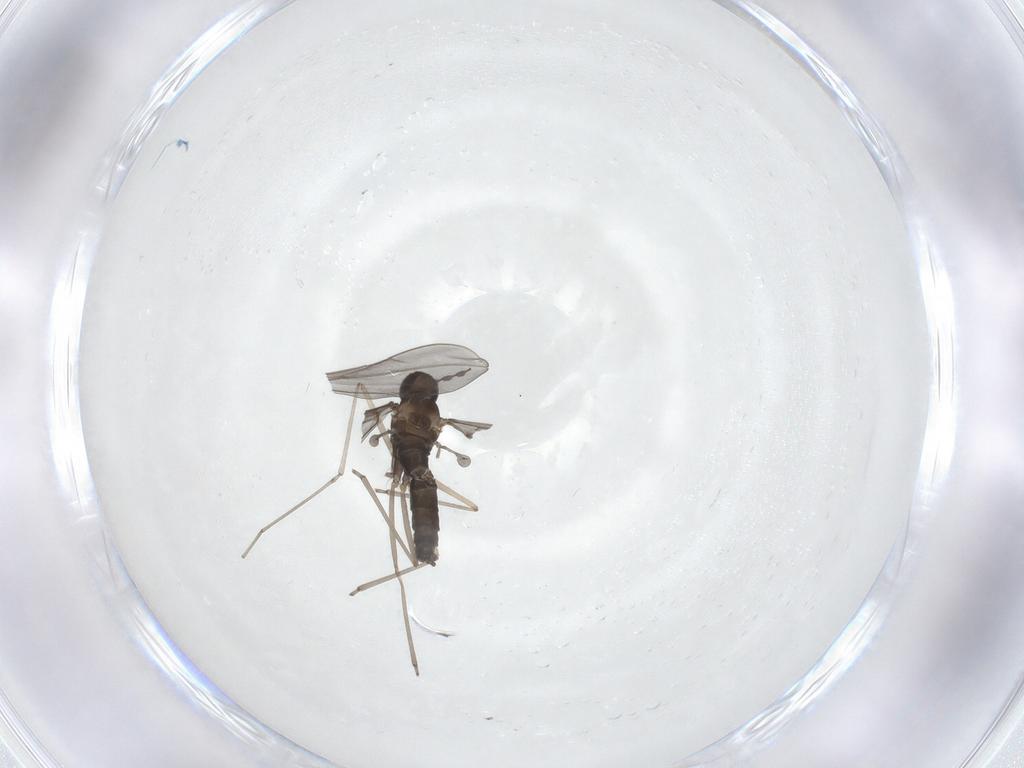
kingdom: Animalia
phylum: Arthropoda
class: Insecta
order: Diptera
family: Cecidomyiidae
